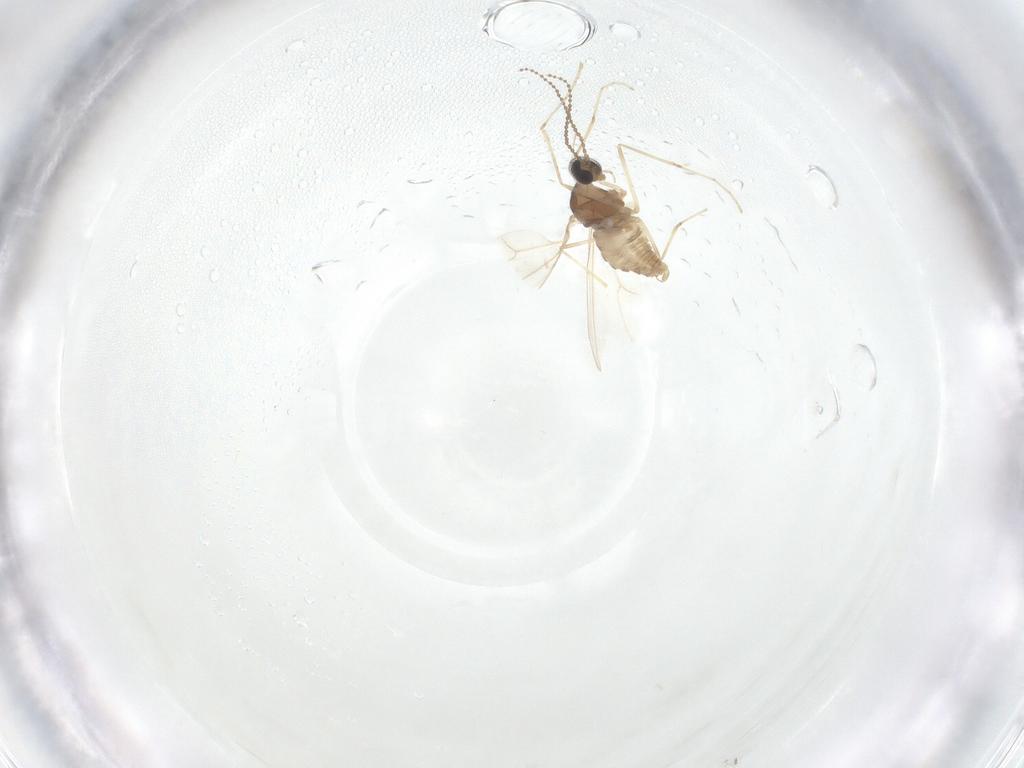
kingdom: Animalia
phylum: Arthropoda
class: Insecta
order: Diptera
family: Cecidomyiidae
